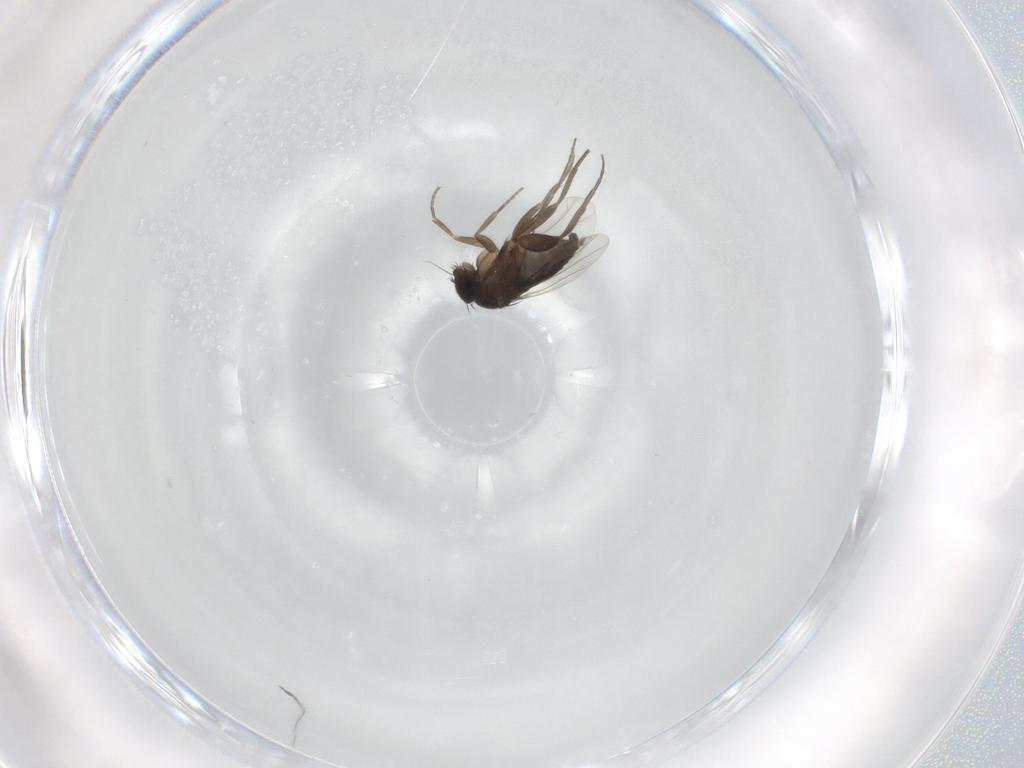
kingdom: Animalia
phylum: Arthropoda
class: Insecta
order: Diptera
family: Phoridae
